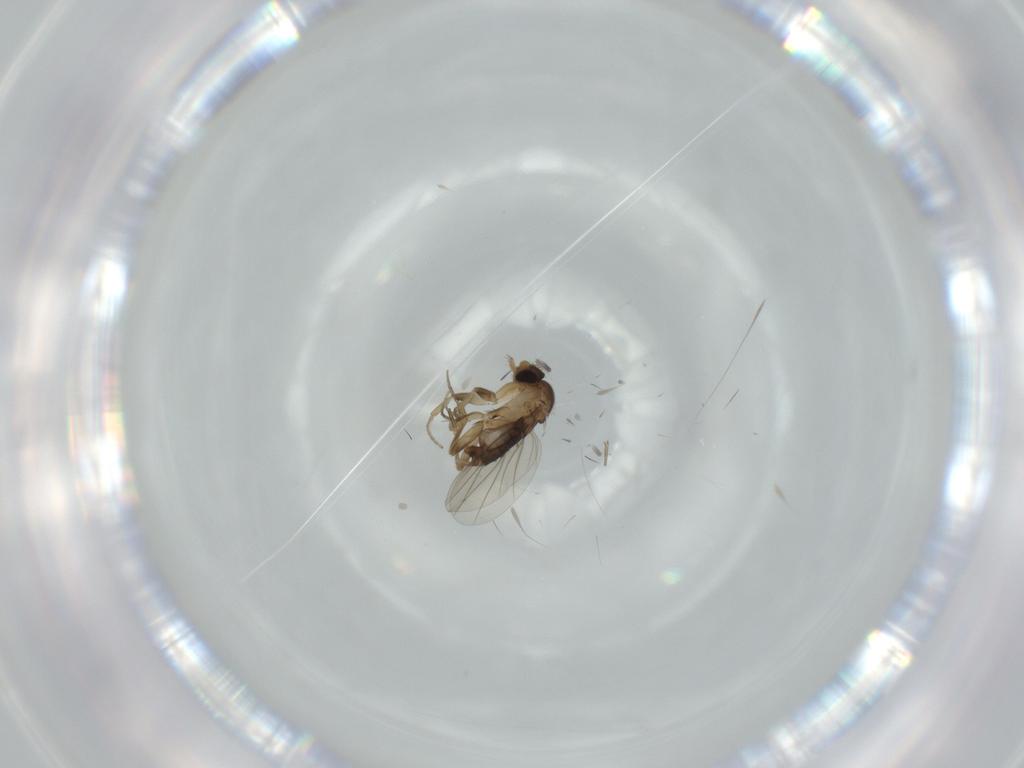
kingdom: Animalia
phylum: Arthropoda
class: Insecta
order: Diptera
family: Phoridae
